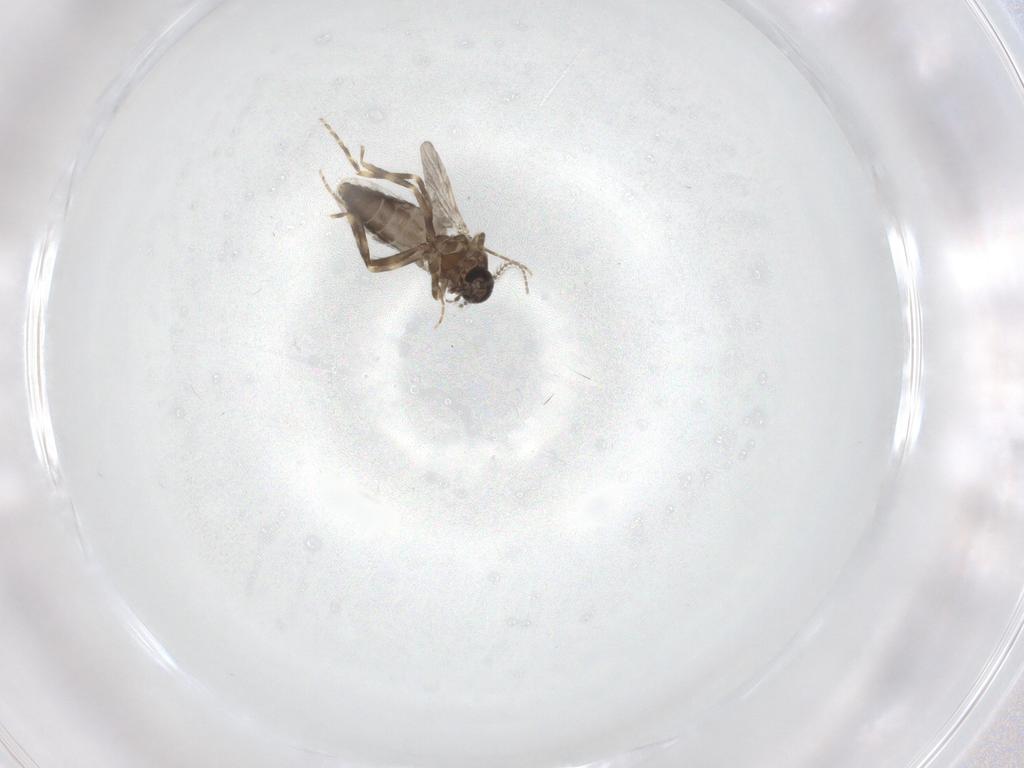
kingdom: Animalia
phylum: Arthropoda
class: Insecta
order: Diptera
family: Ceratopogonidae
